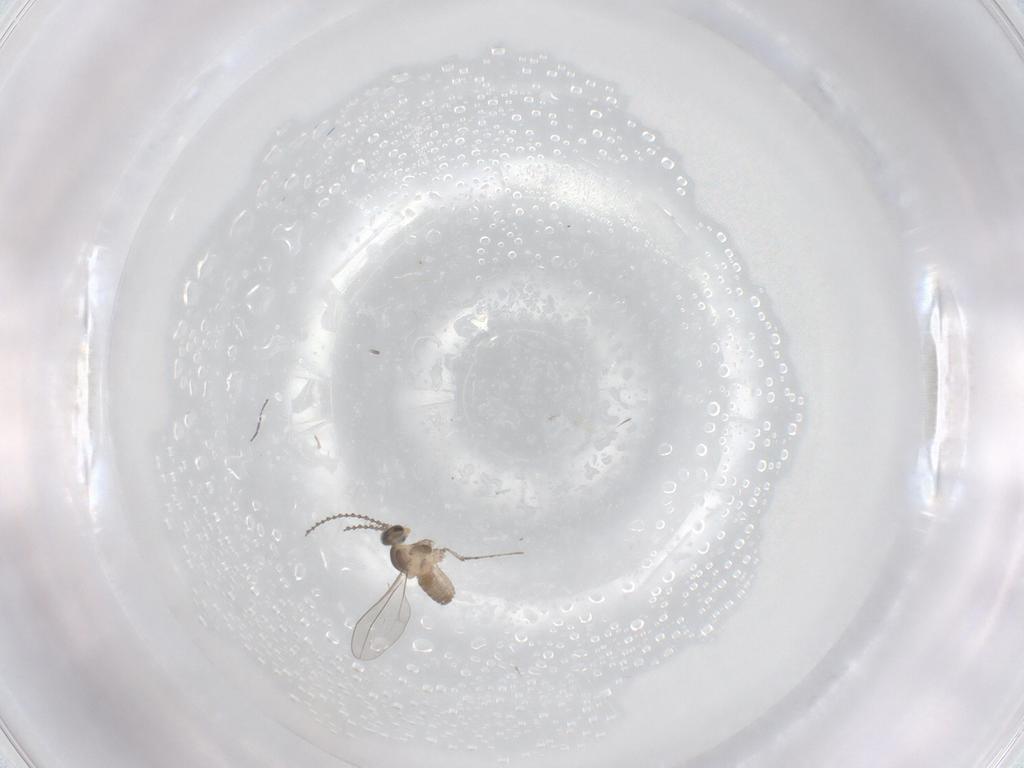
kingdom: Animalia
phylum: Arthropoda
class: Insecta
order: Diptera
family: Cecidomyiidae
